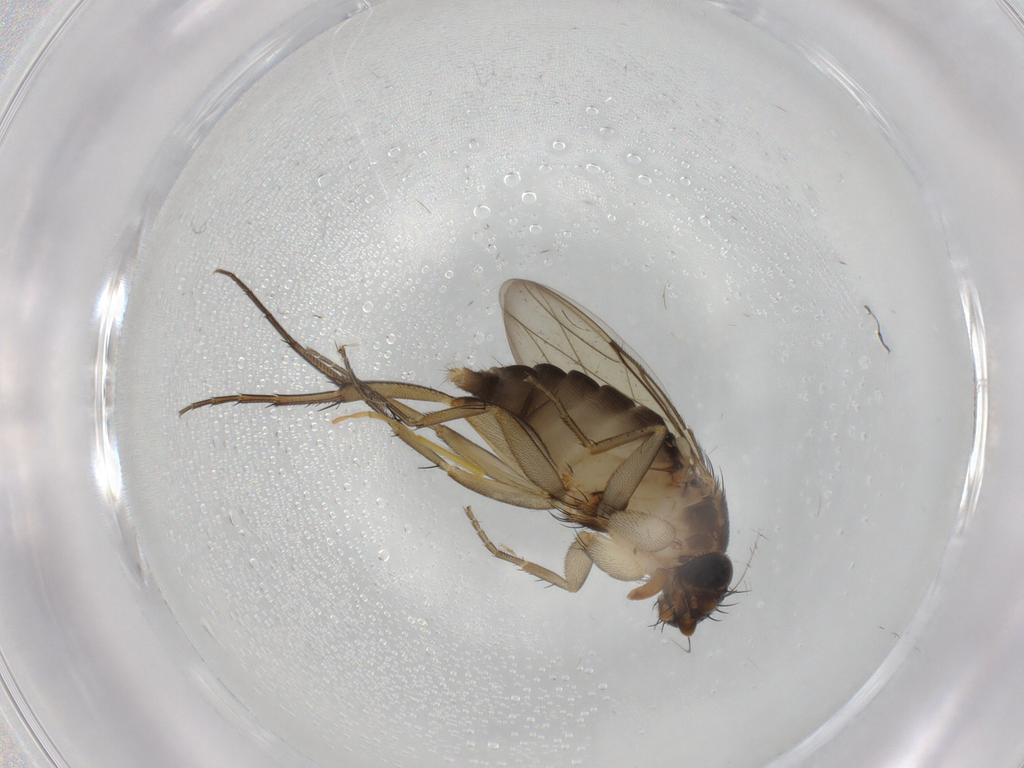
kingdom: Animalia
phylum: Arthropoda
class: Insecta
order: Diptera
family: Phoridae
